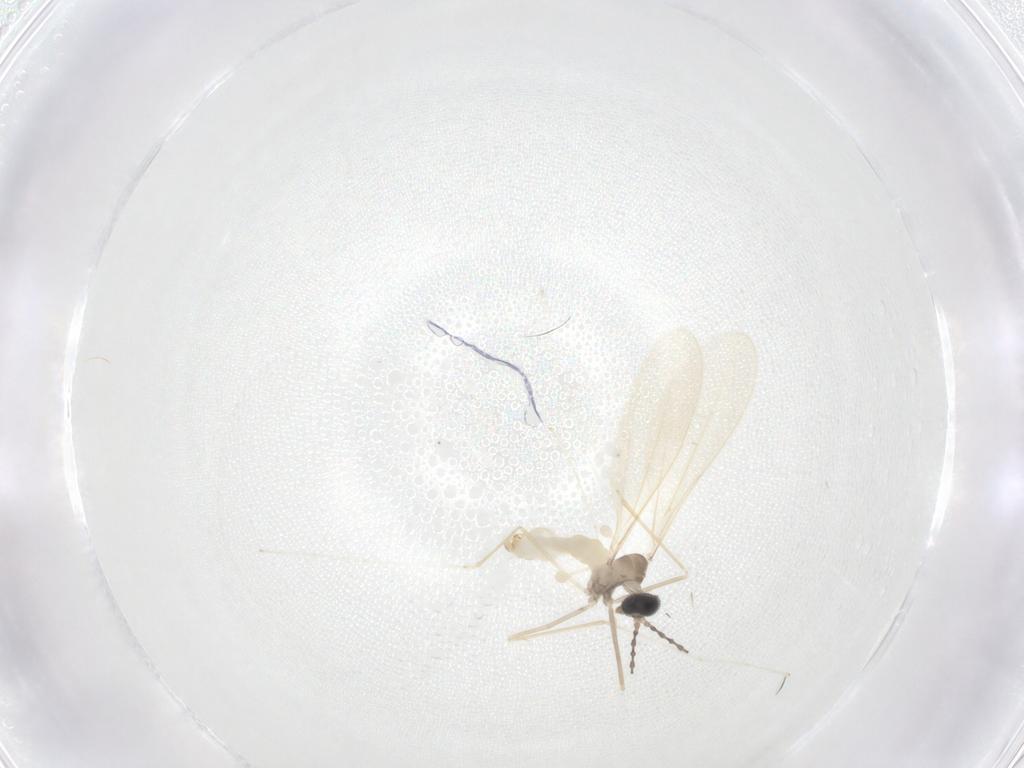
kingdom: Animalia
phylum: Arthropoda
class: Insecta
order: Diptera
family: Cecidomyiidae
